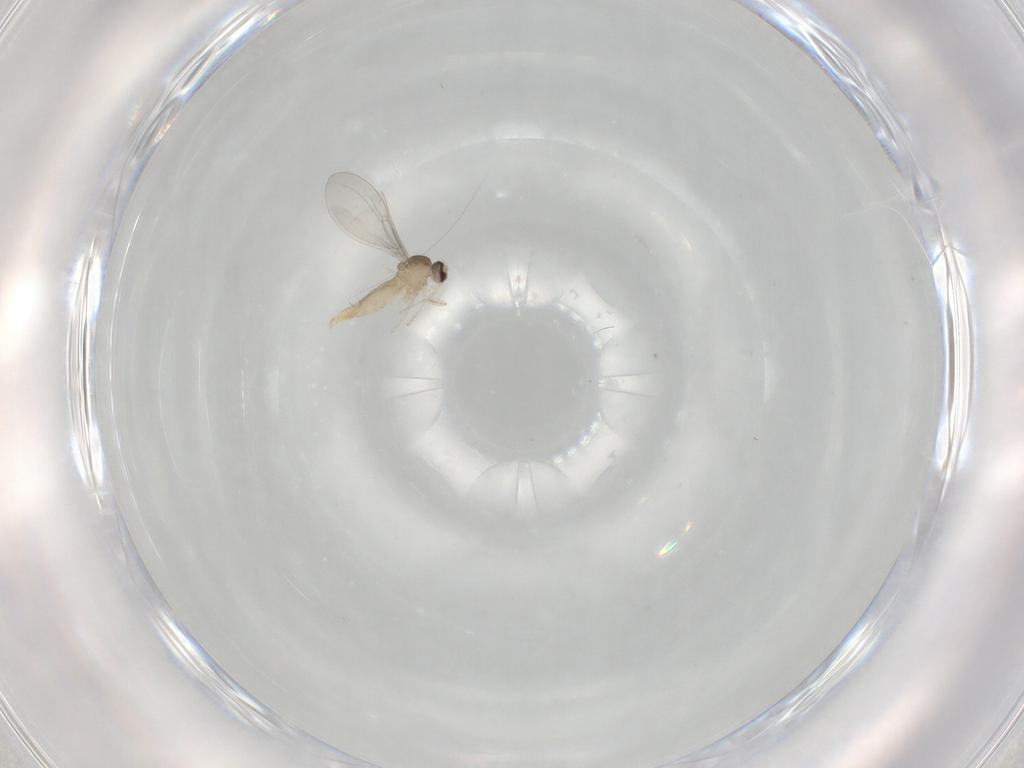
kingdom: Animalia
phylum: Arthropoda
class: Insecta
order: Diptera
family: Cecidomyiidae
